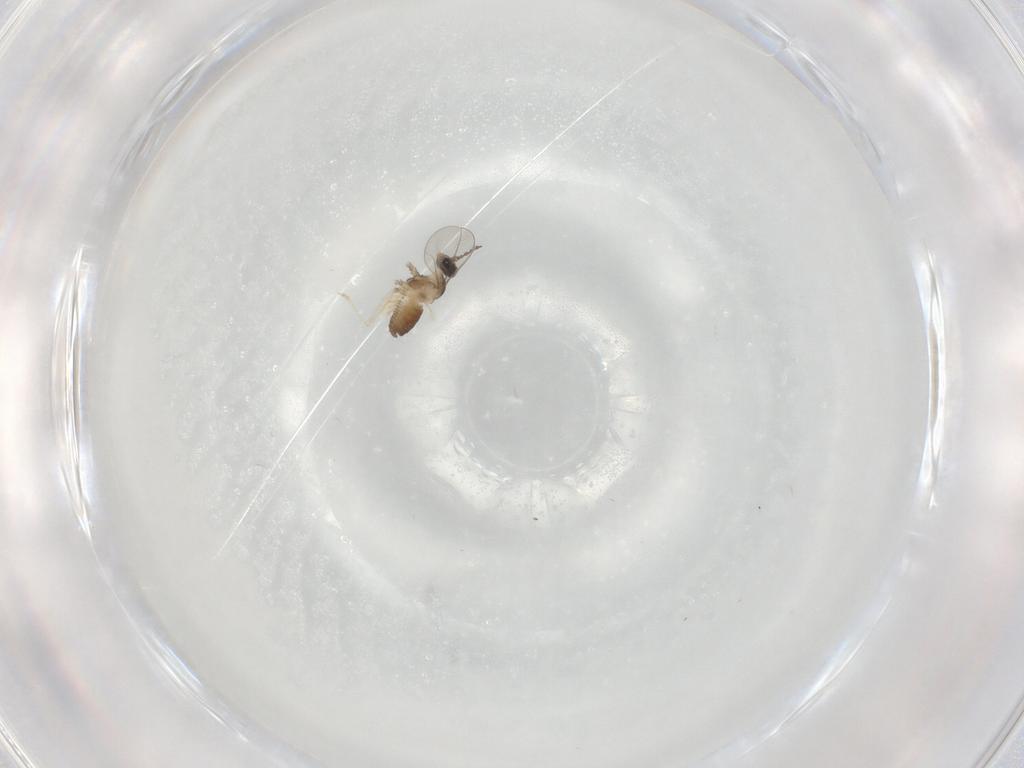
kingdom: Animalia
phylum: Arthropoda
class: Insecta
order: Diptera
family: Cecidomyiidae
